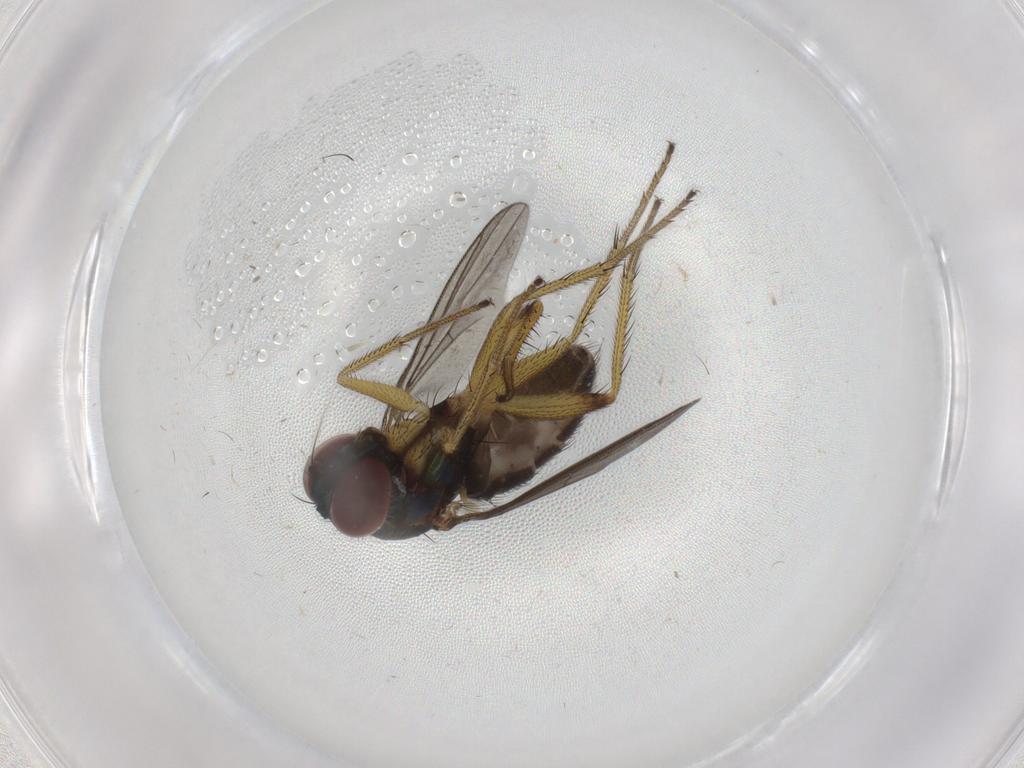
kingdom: Animalia
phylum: Arthropoda
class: Insecta
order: Diptera
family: Dolichopodidae
